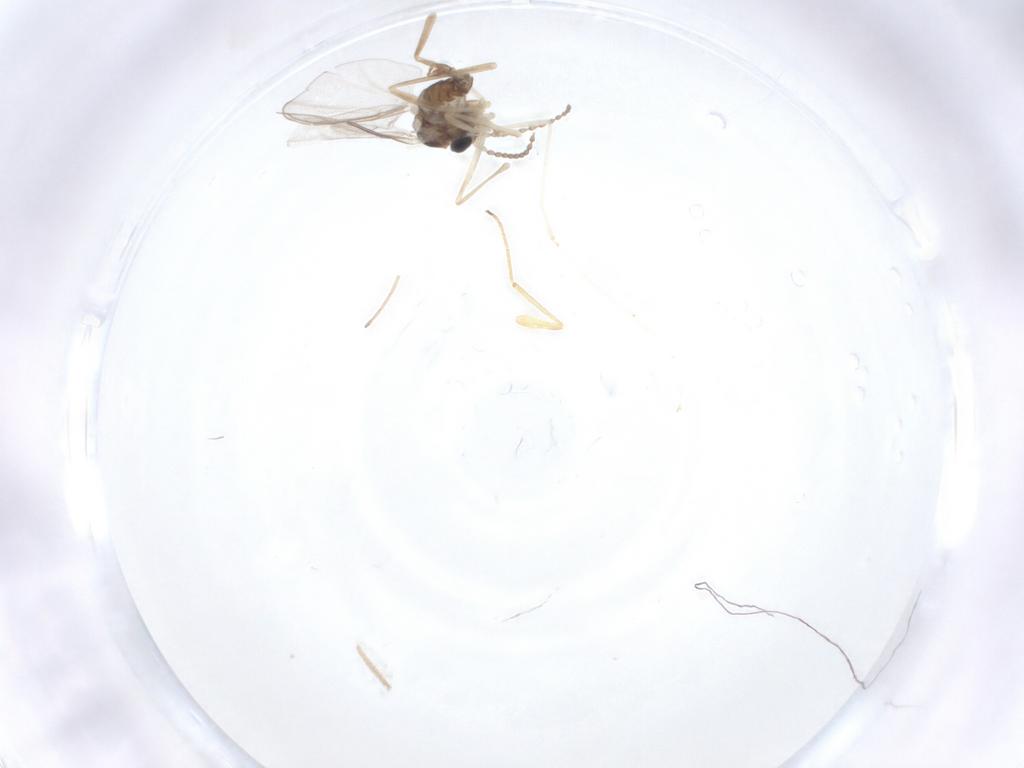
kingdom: Animalia
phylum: Arthropoda
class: Insecta
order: Diptera
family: Cecidomyiidae
